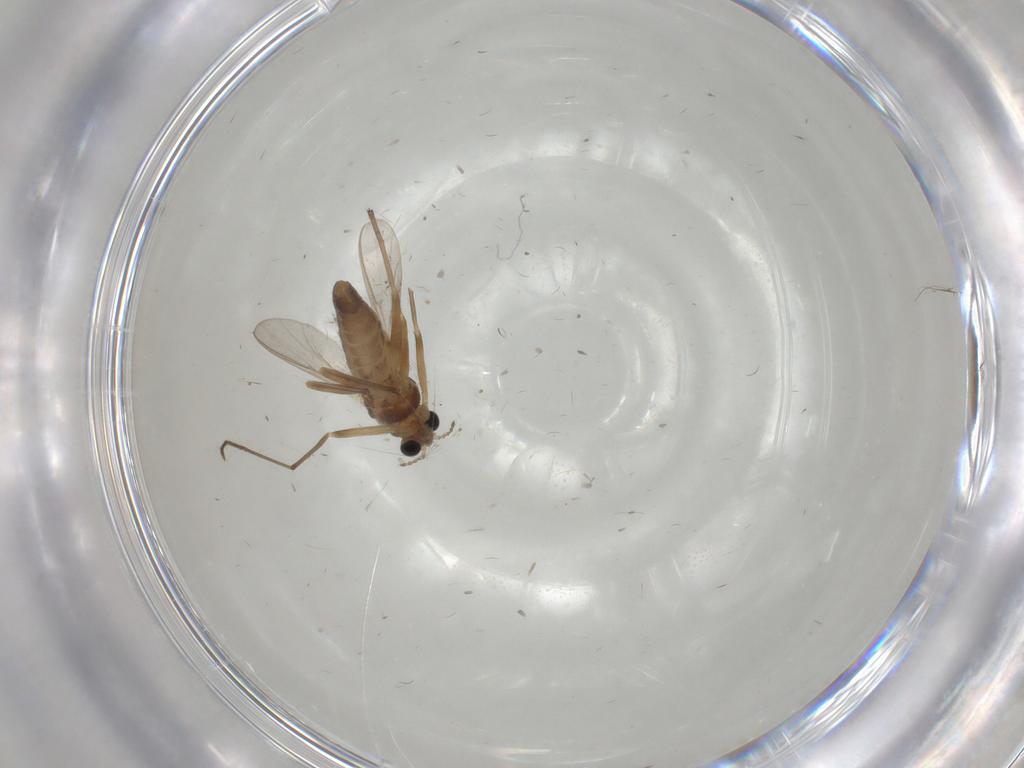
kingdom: Animalia
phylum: Arthropoda
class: Insecta
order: Diptera
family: Chironomidae
